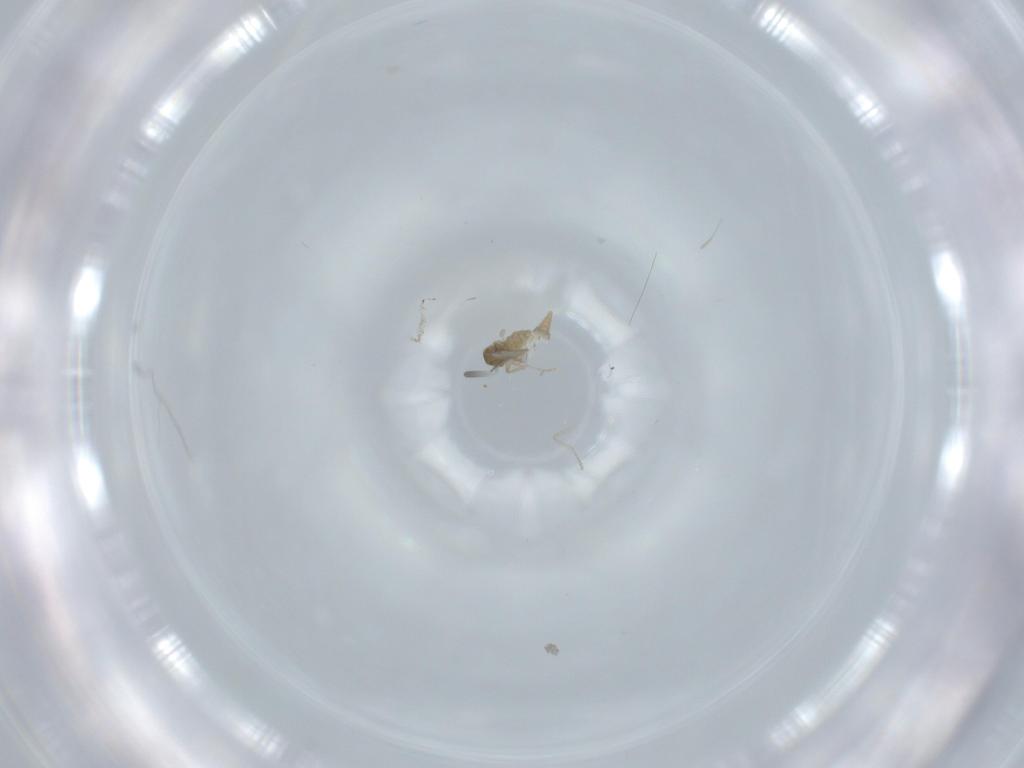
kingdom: Animalia
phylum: Arthropoda
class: Insecta
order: Diptera
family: Cecidomyiidae
